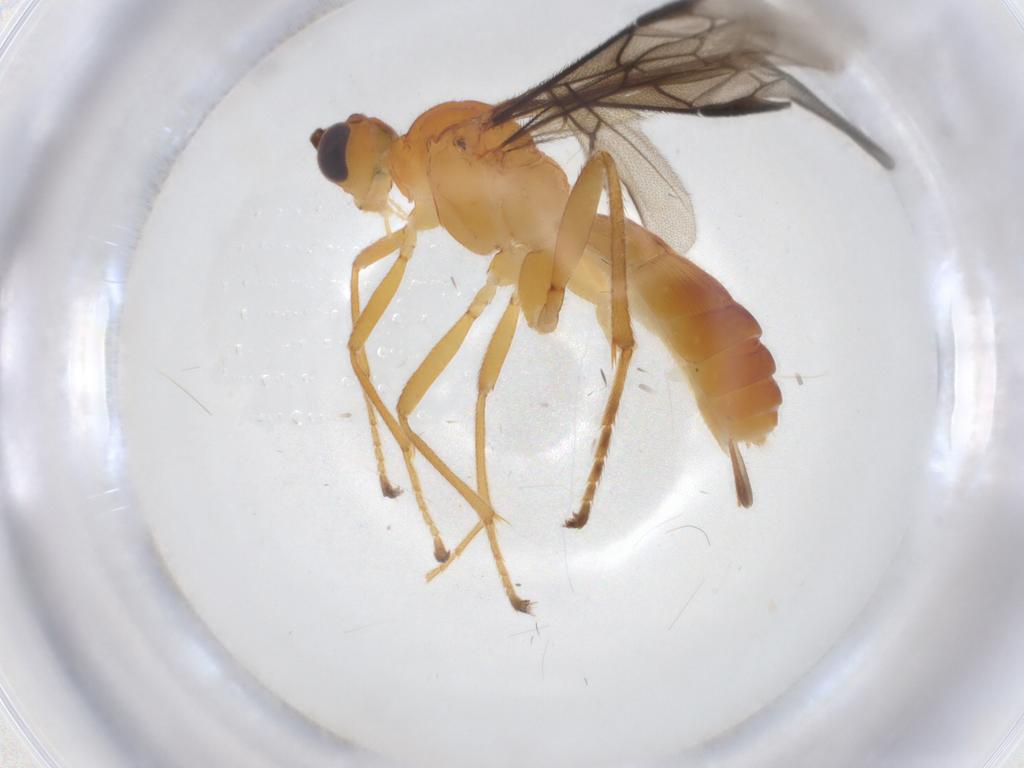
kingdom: Animalia
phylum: Arthropoda
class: Insecta
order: Hymenoptera
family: Braconidae
